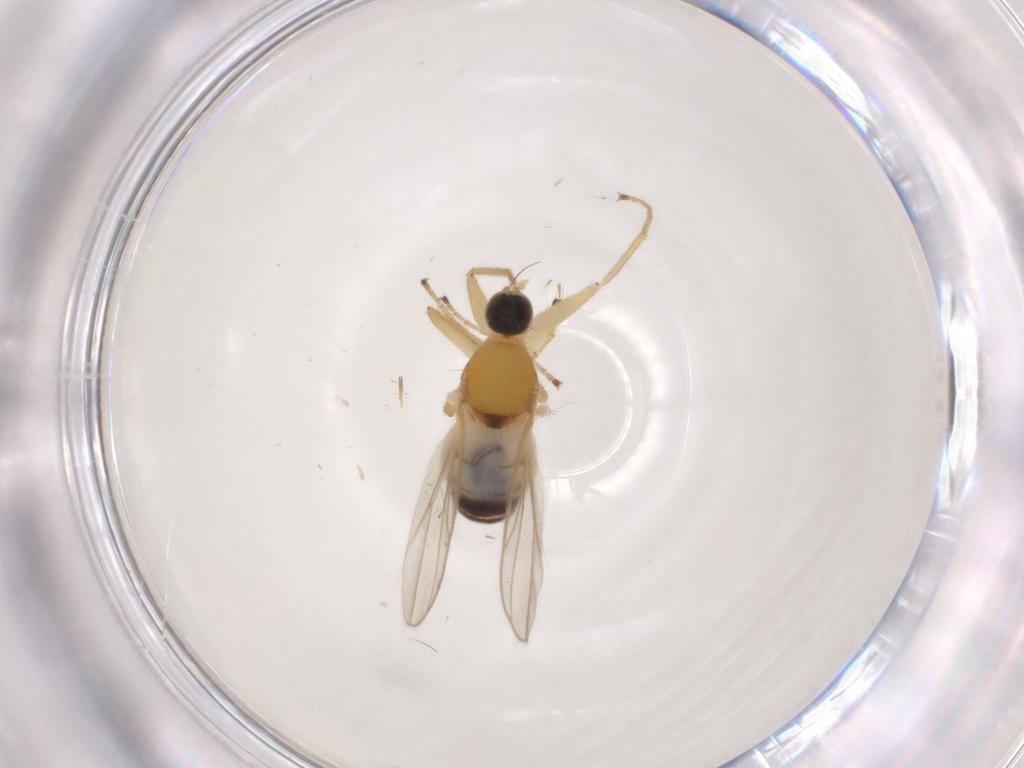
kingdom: Animalia
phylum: Arthropoda
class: Insecta
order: Diptera
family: Hybotidae
